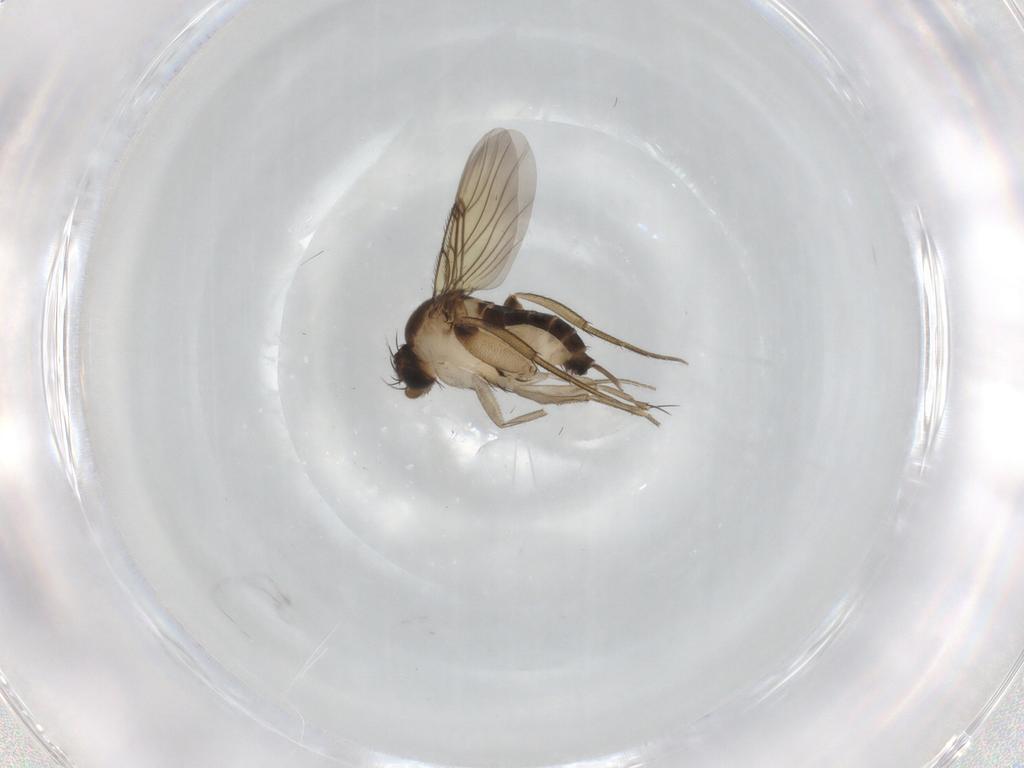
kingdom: Animalia
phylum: Arthropoda
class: Insecta
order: Diptera
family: Phoridae
